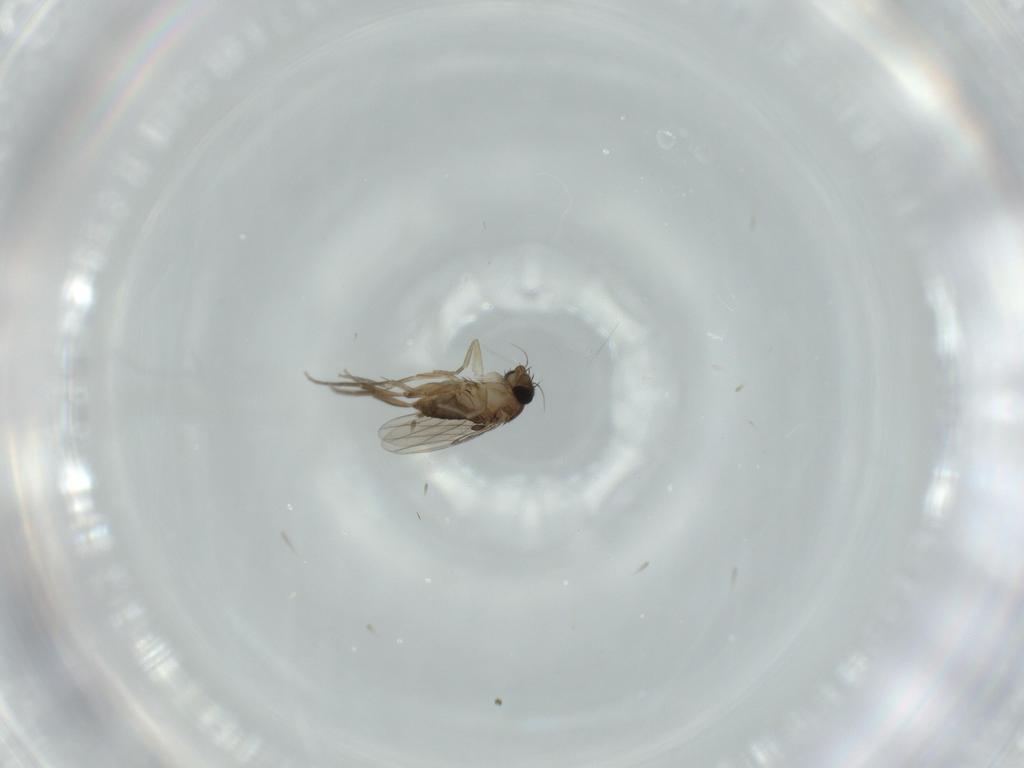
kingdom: Animalia
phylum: Arthropoda
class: Insecta
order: Diptera
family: Phoridae
